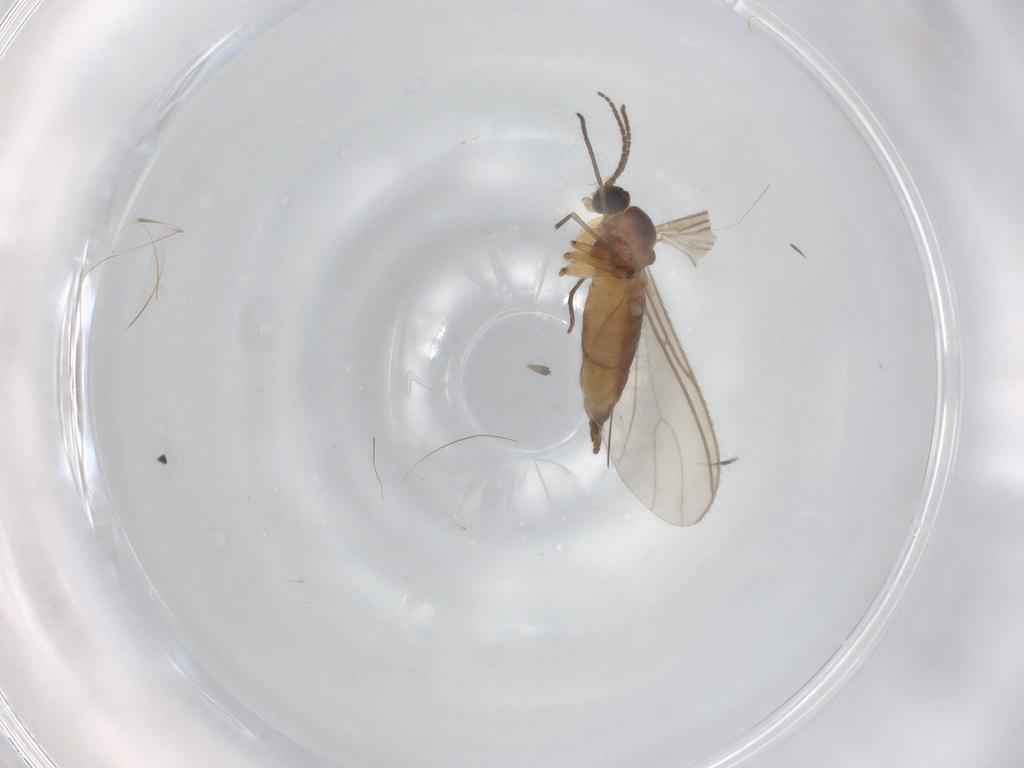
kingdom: Animalia
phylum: Arthropoda
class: Insecta
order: Diptera
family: Sciaridae
